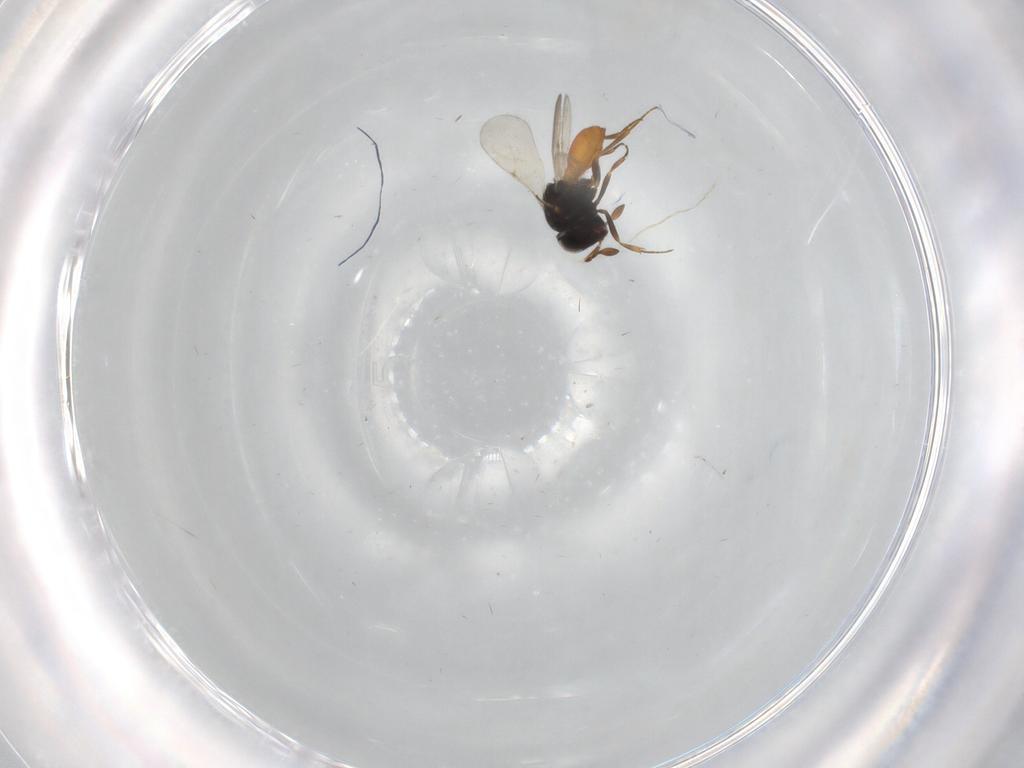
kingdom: Animalia
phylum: Arthropoda
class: Insecta
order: Hymenoptera
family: Scelionidae
